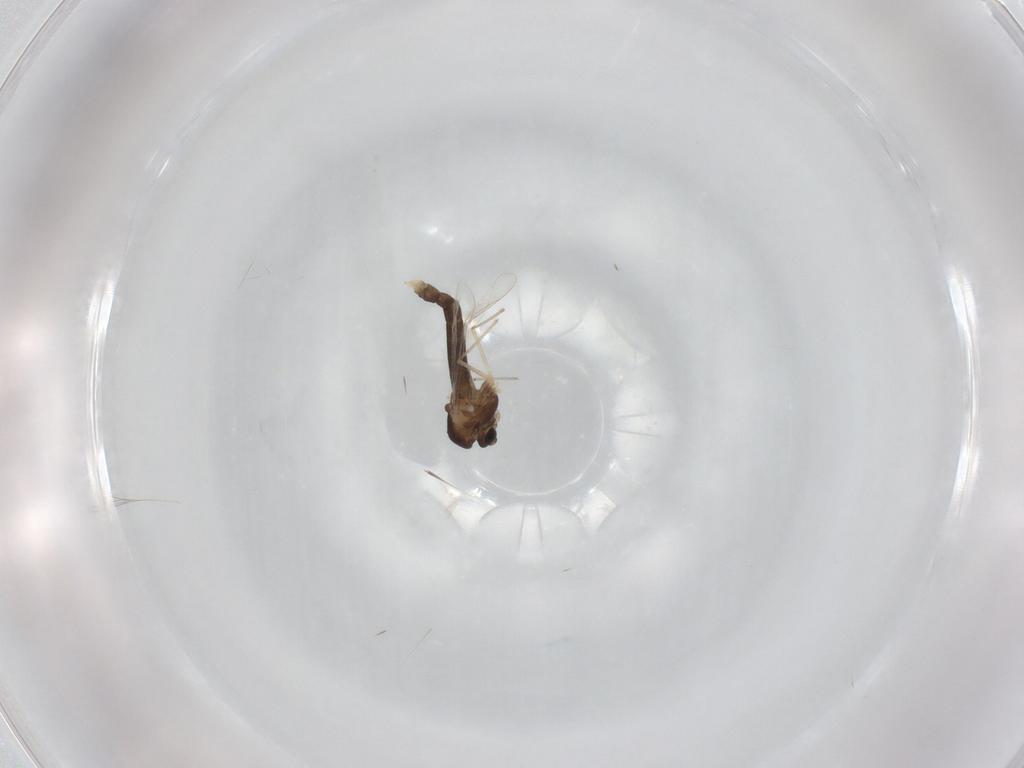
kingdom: Animalia
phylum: Arthropoda
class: Insecta
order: Diptera
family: Chironomidae
